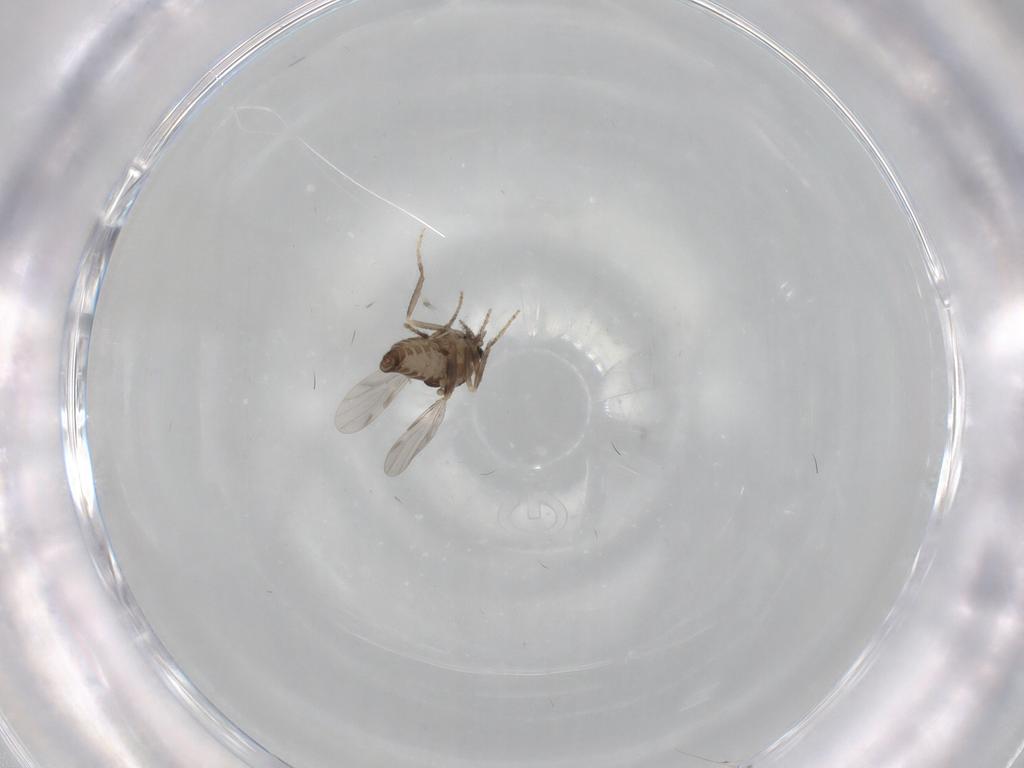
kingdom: Animalia
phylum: Arthropoda
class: Insecta
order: Diptera
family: Ceratopogonidae
